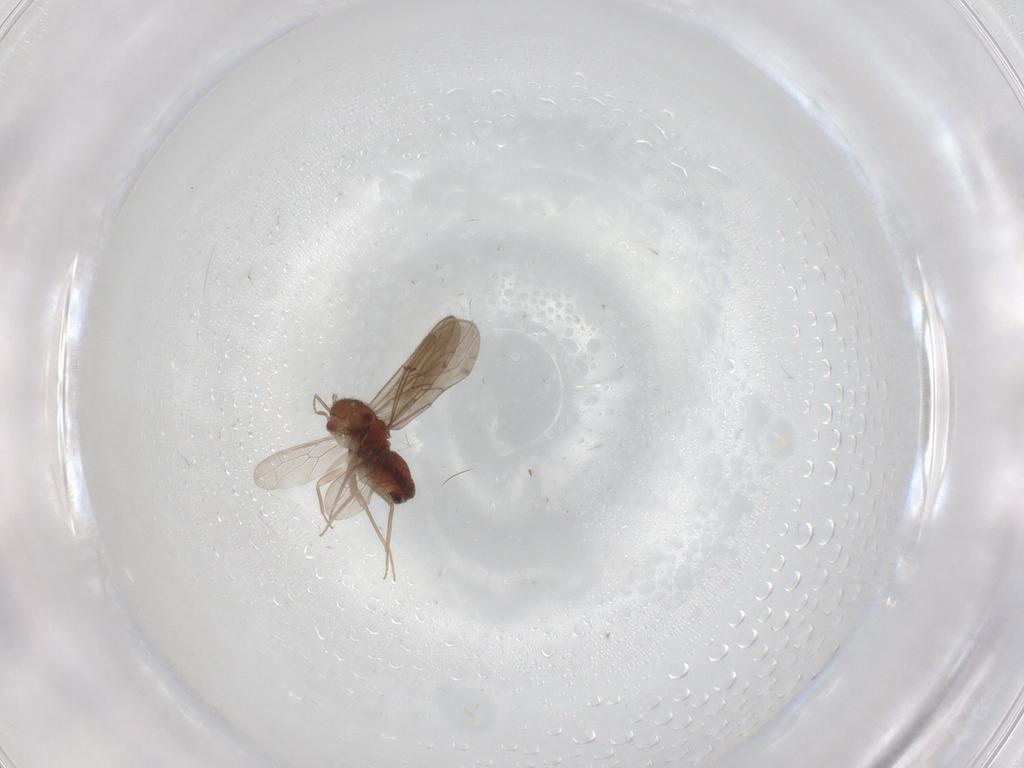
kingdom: Animalia
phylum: Arthropoda
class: Insecta
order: Psocodea
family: Ectopsocidae
